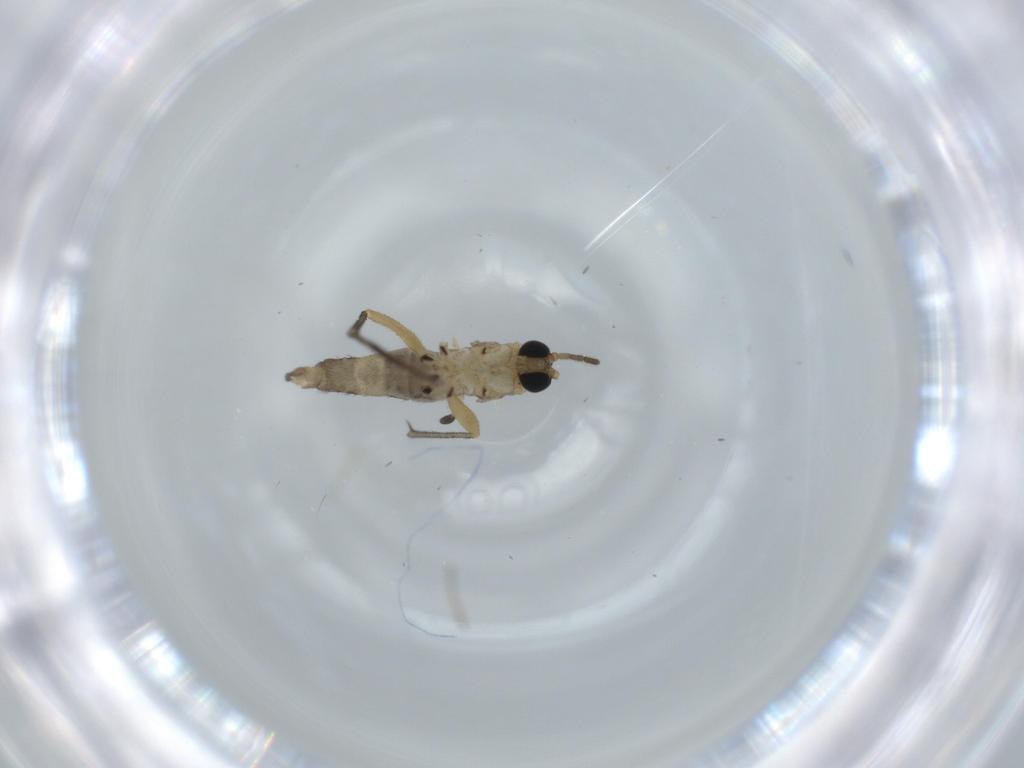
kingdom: Animalia
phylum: Arthropoda
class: Insecta
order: Diptera
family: Sciaridae
